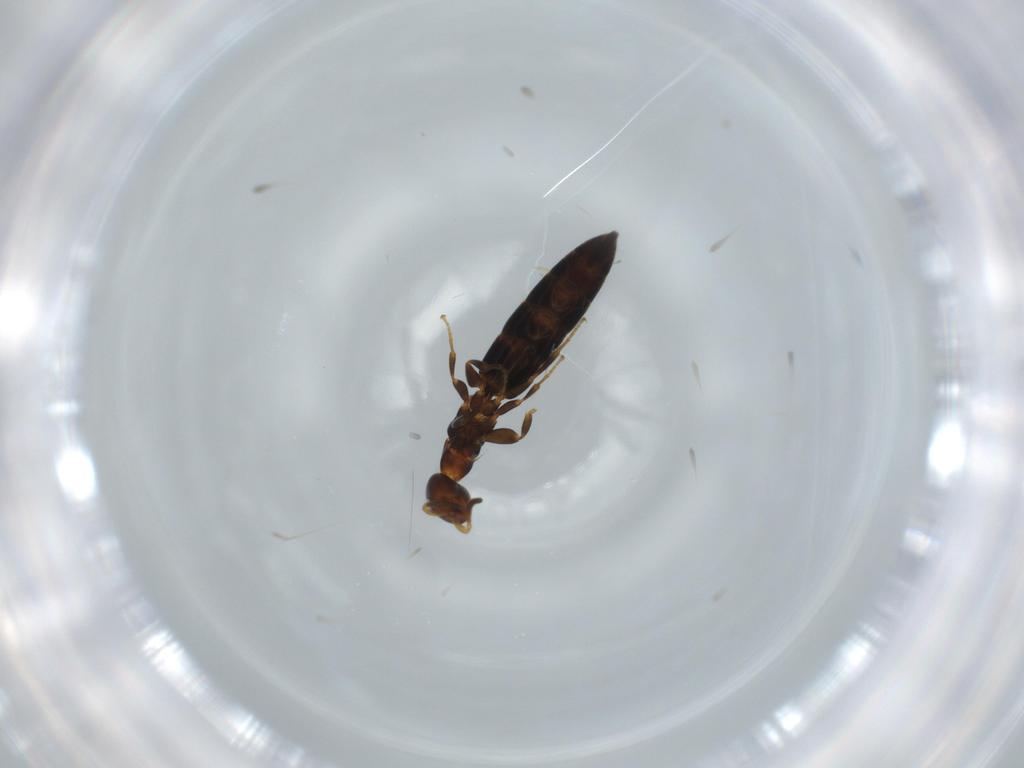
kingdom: Animalia
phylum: Arthropoda
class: Insecta
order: Hymenoptera
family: Bethylidae
